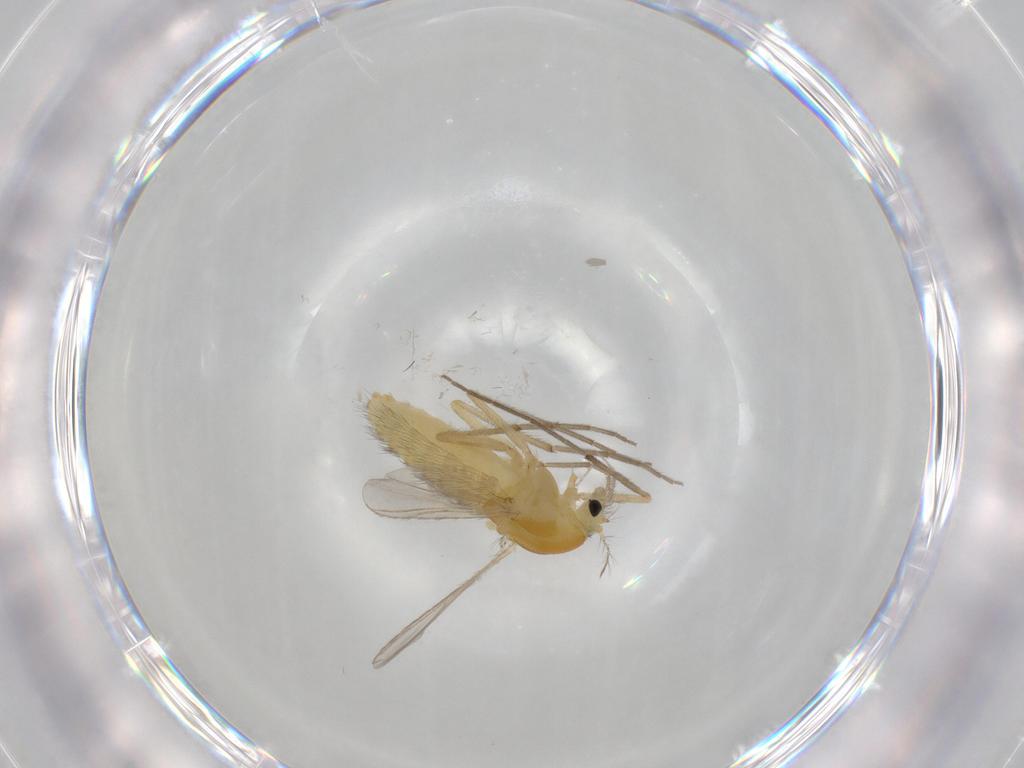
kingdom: Animalia
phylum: Arthropoda
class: Insecta
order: Diptera
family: Chironomidae
